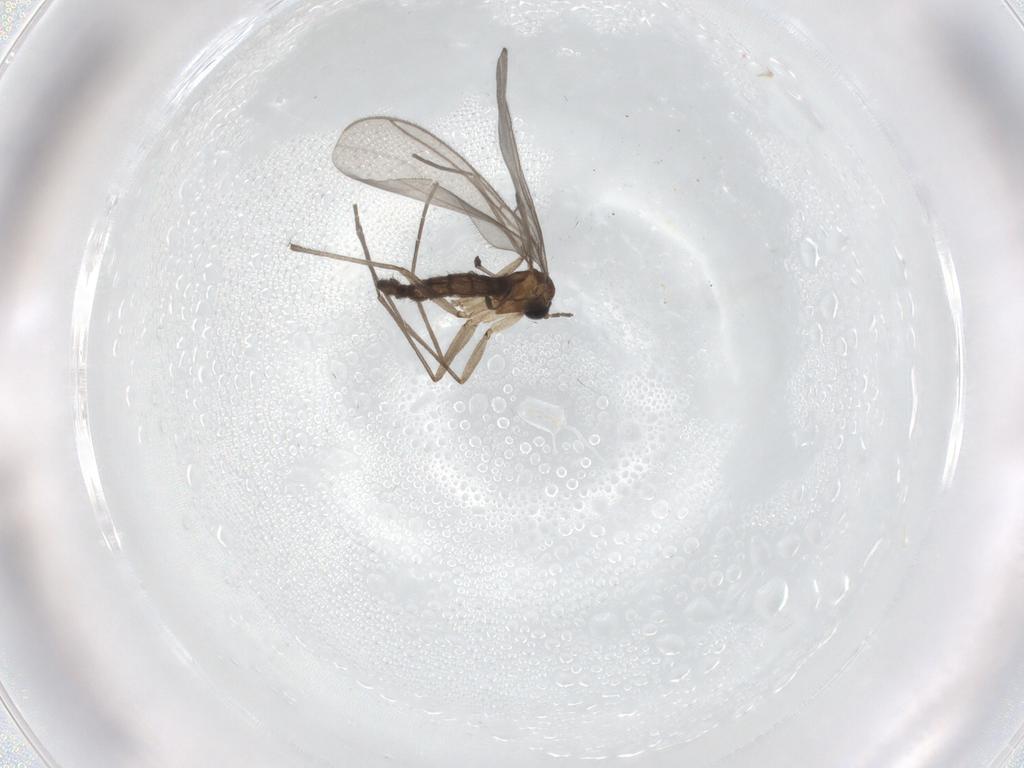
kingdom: Animalia
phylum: Arthropoda
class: Insecta
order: Diptera
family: Sciaridae
